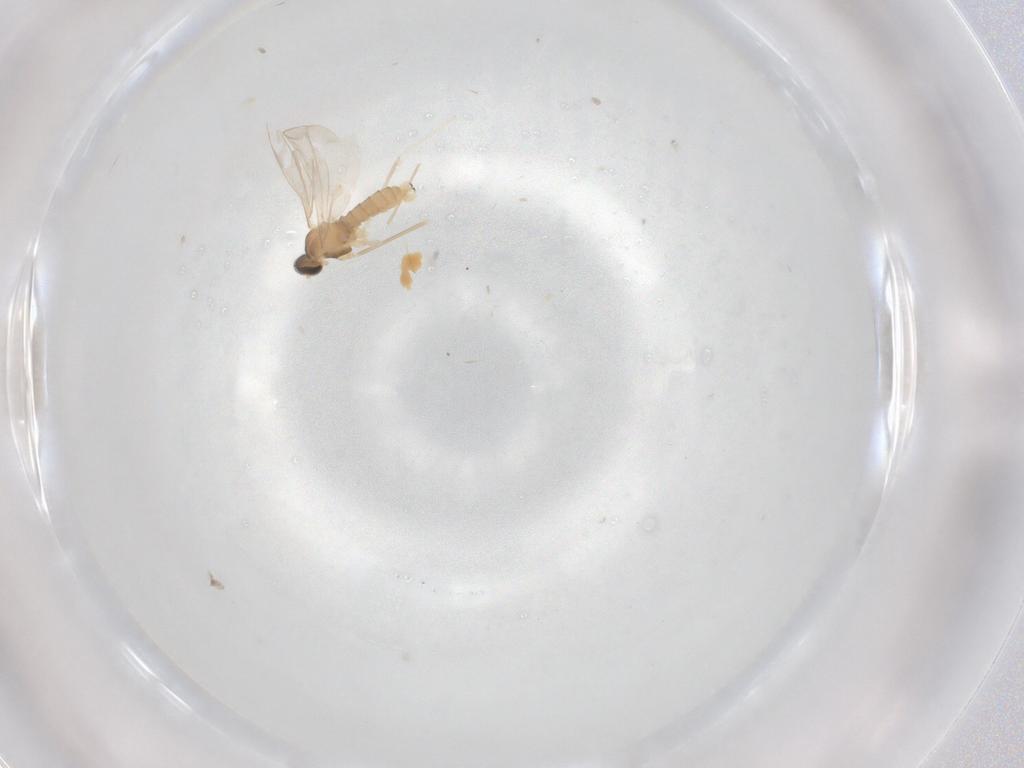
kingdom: Animalia
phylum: Arthropoda
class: Insecta
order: Diptera
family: Cecidomyiidae
